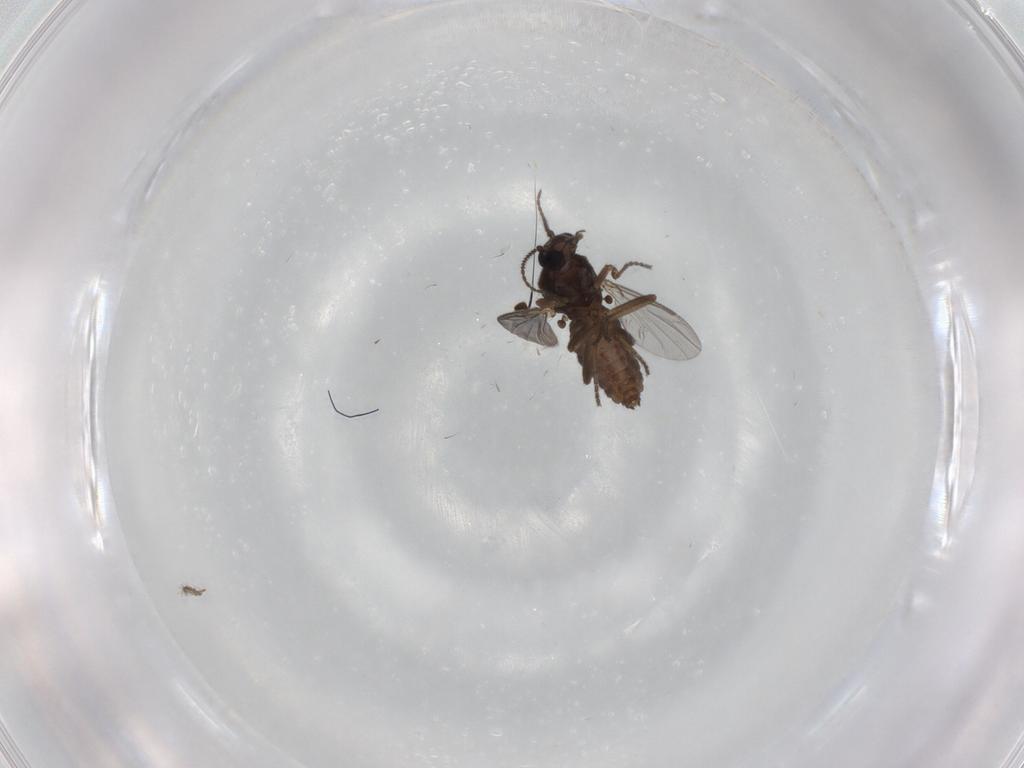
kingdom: Animalia
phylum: Arthropoda
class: Insecta
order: Diptera
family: Ceratopogonidae
